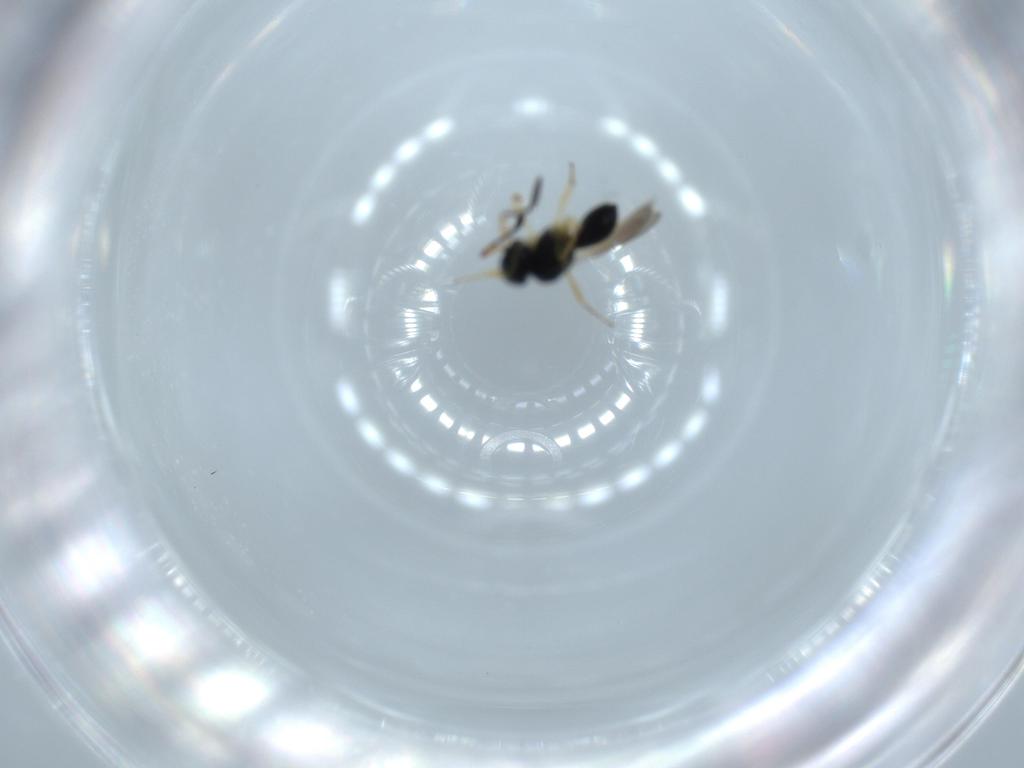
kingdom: Animalia
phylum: Arthropoda
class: Insecta
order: Hymenoptera
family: Scelionidae
